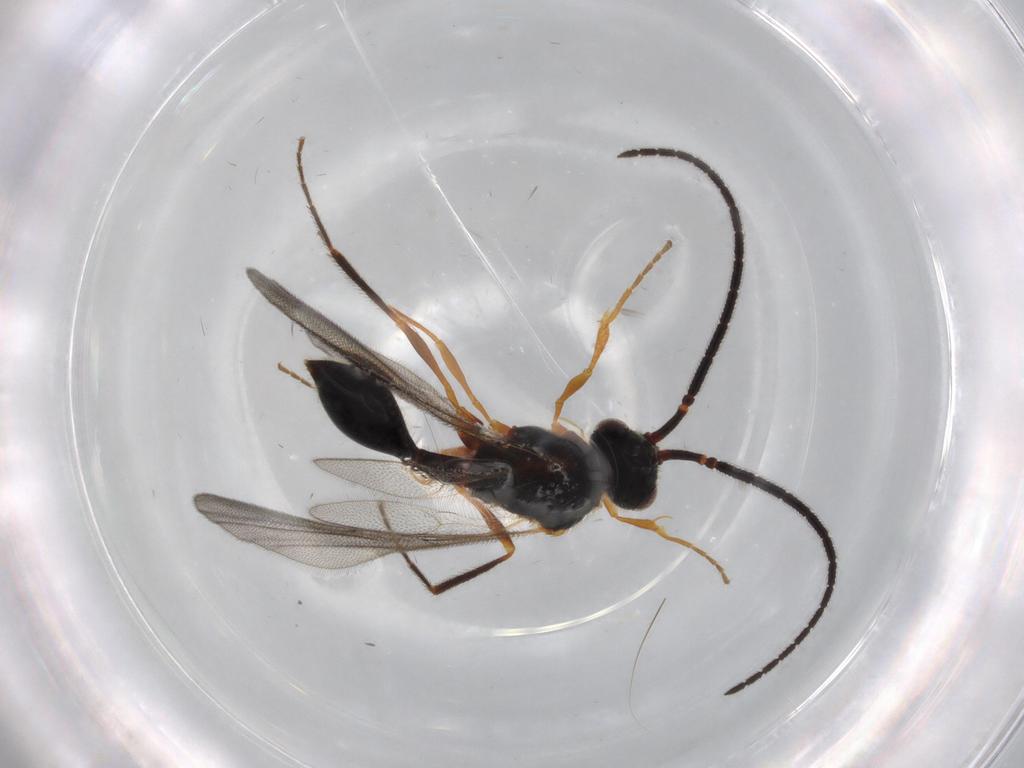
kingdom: Animalia
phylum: Arthropoda
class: Insecta
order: Hymenoptera
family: Diapriidae
